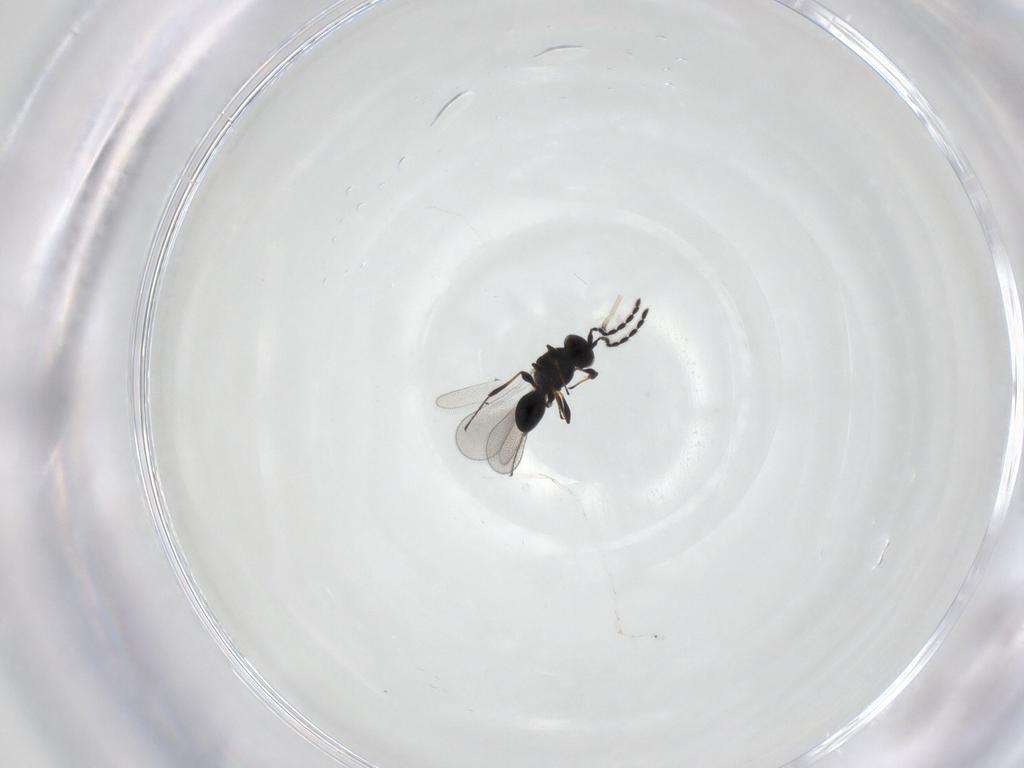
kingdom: Animalia
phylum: Arthropoda
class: Insecta
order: Hymenoptera
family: Platygastridae
